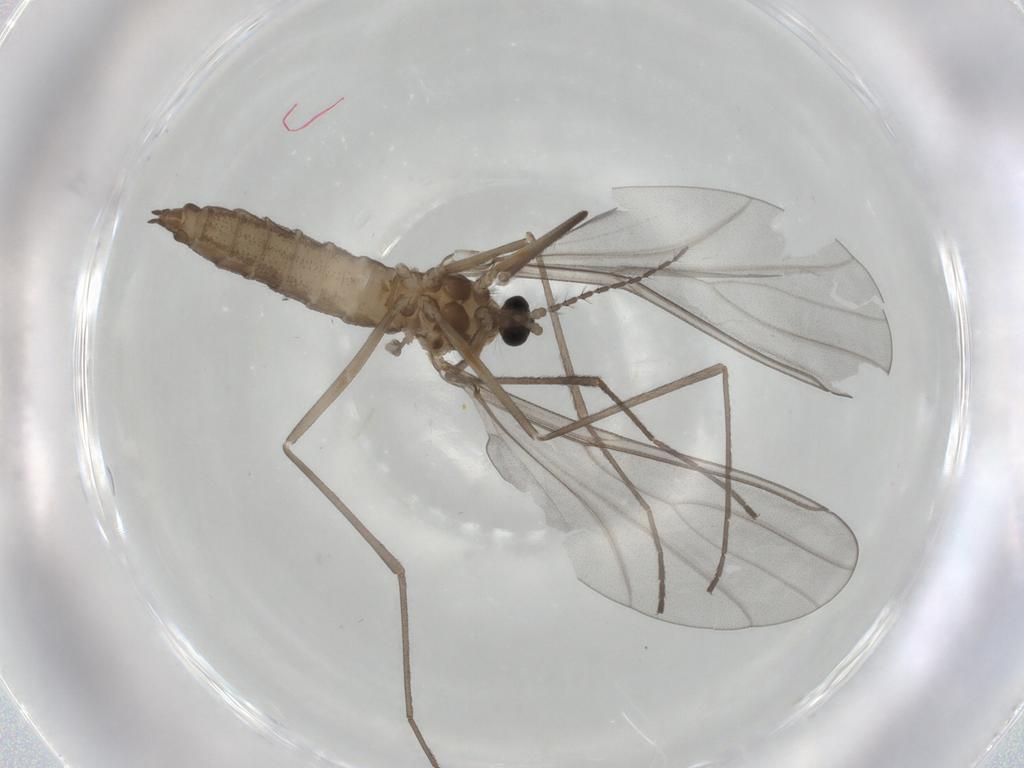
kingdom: Animalia
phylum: Arthropoda
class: Insecta
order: Diptera
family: Cecidomyiidae
